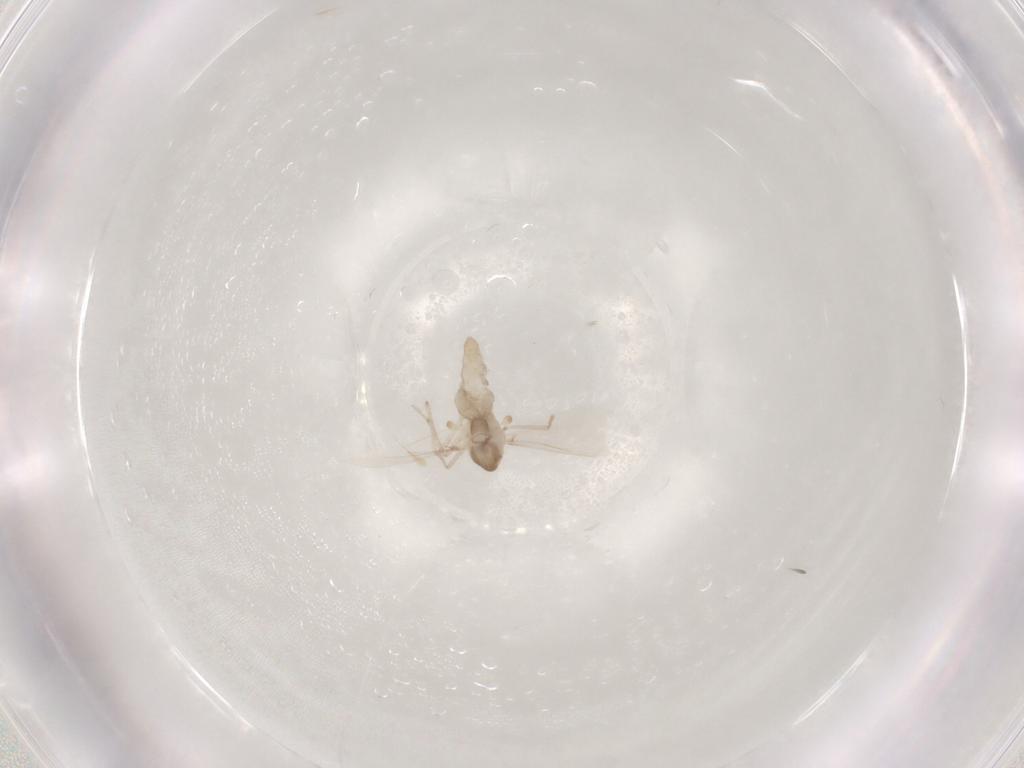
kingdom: Animalia
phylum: Arthropoda
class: Insecta
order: Diptera
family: Chironomidae
